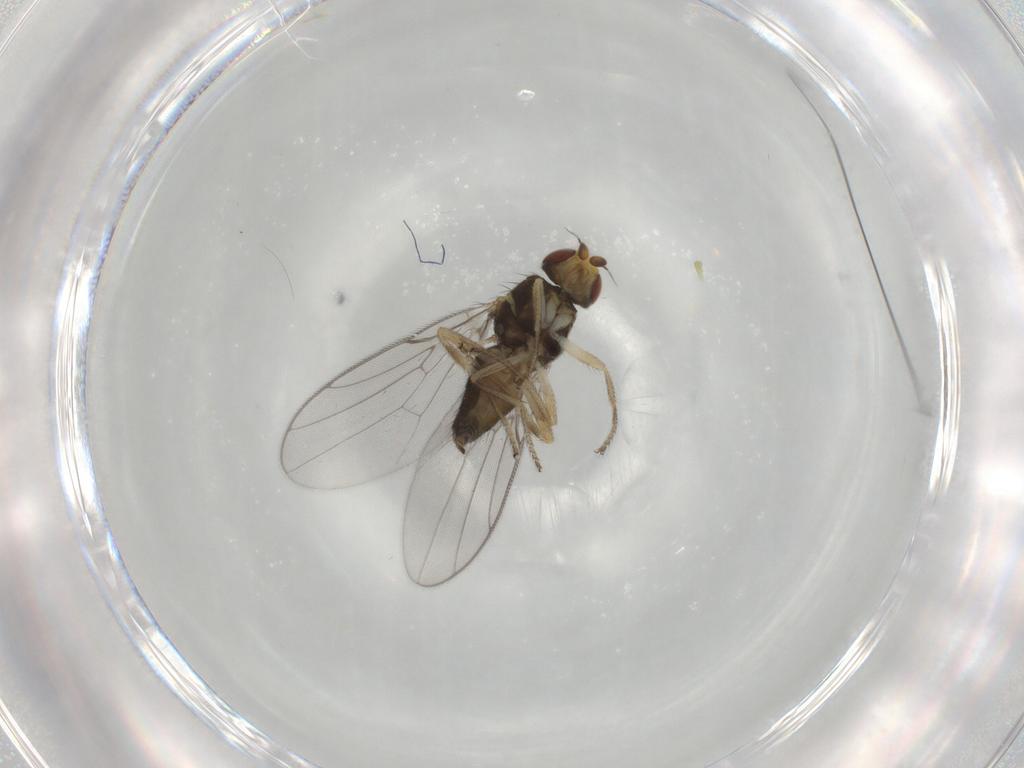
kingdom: Animalia
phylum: Arthropoda
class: Insecta
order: Diptera
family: Chloropidae
